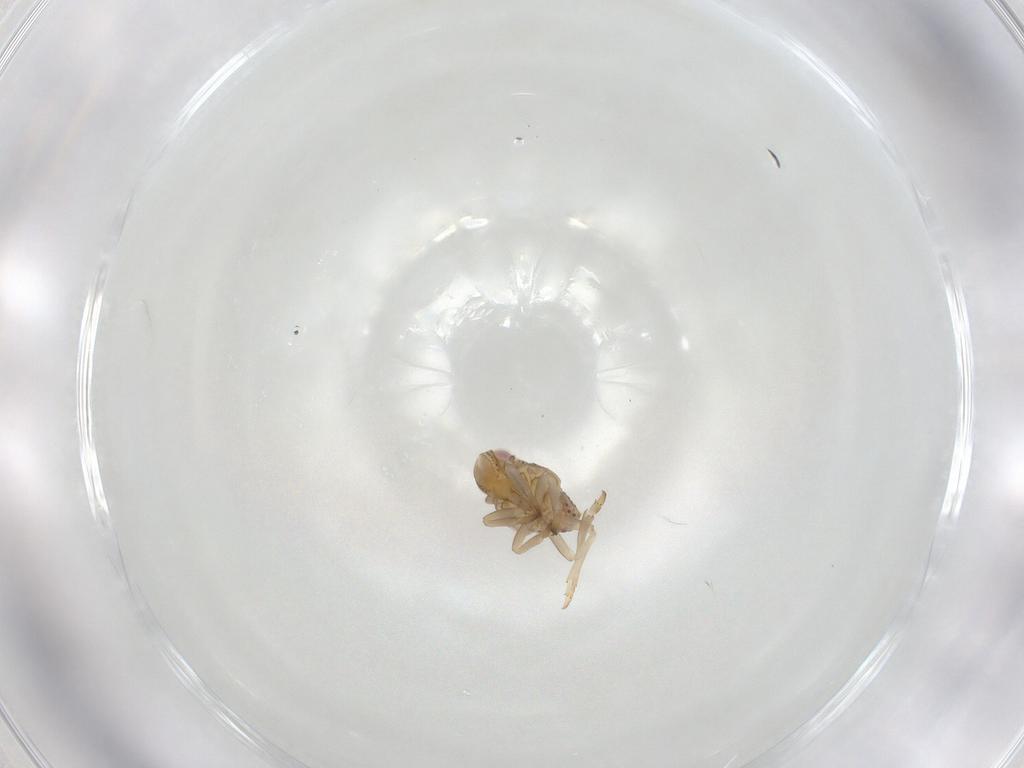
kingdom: Animalia
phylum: Arthropoda
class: Insecta
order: Hemiptera
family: Tropiduchidae
